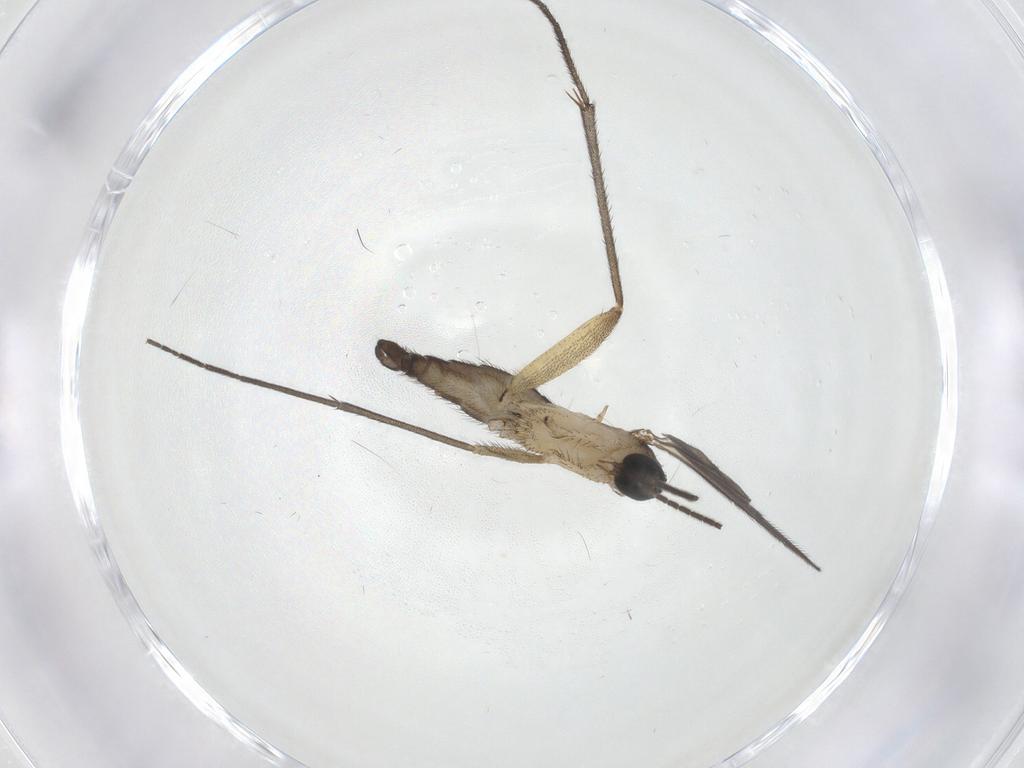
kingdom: Animalia
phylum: Arthropoda
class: Insecta
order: Diptera
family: Sciaridae
